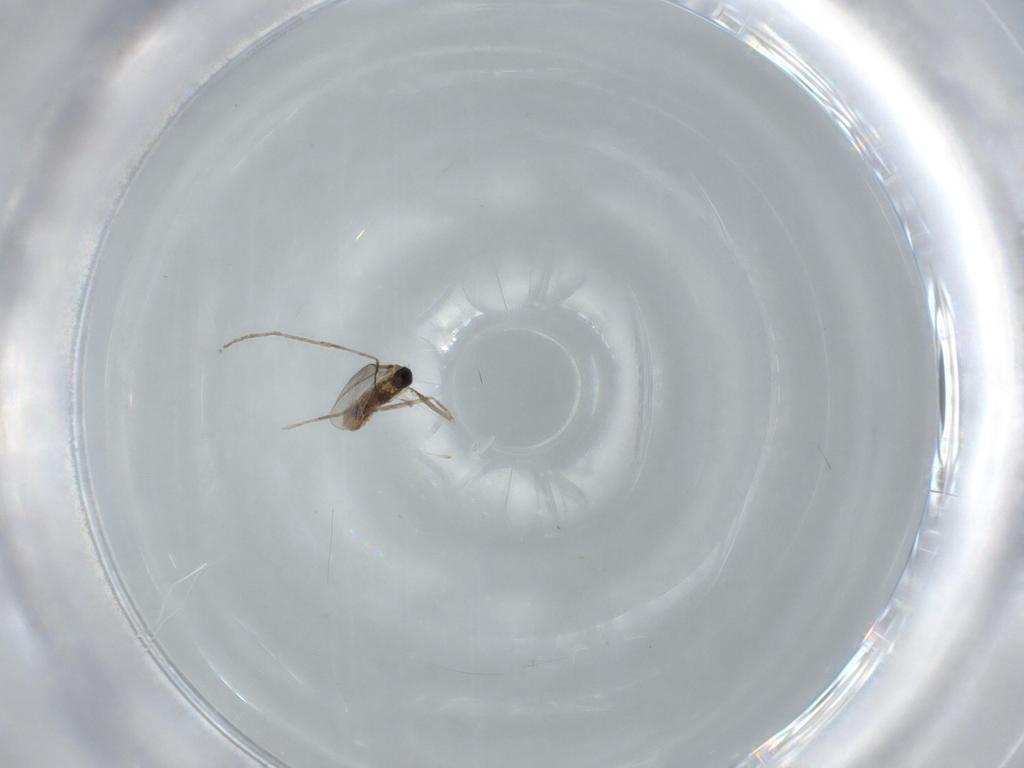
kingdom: Animalia
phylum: Arthropoda
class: Insecta
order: Diptera
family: Cecidomyiidae
